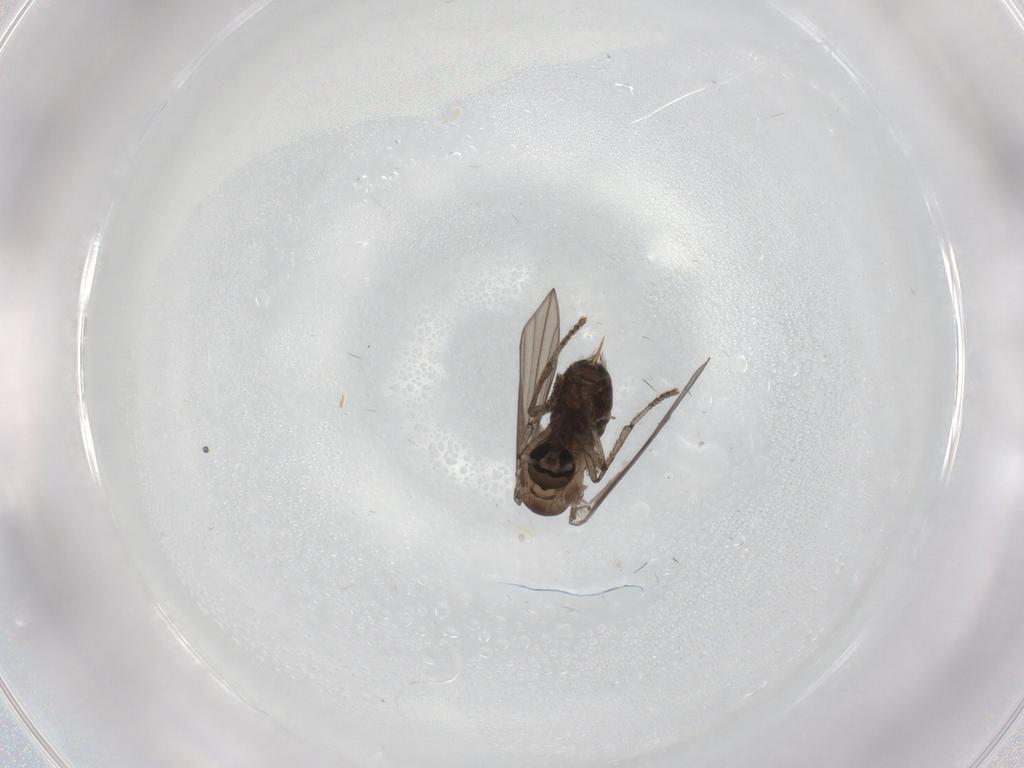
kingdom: Animalia
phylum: Arthropoda
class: Insecta
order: Diptera
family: Psychodidae
